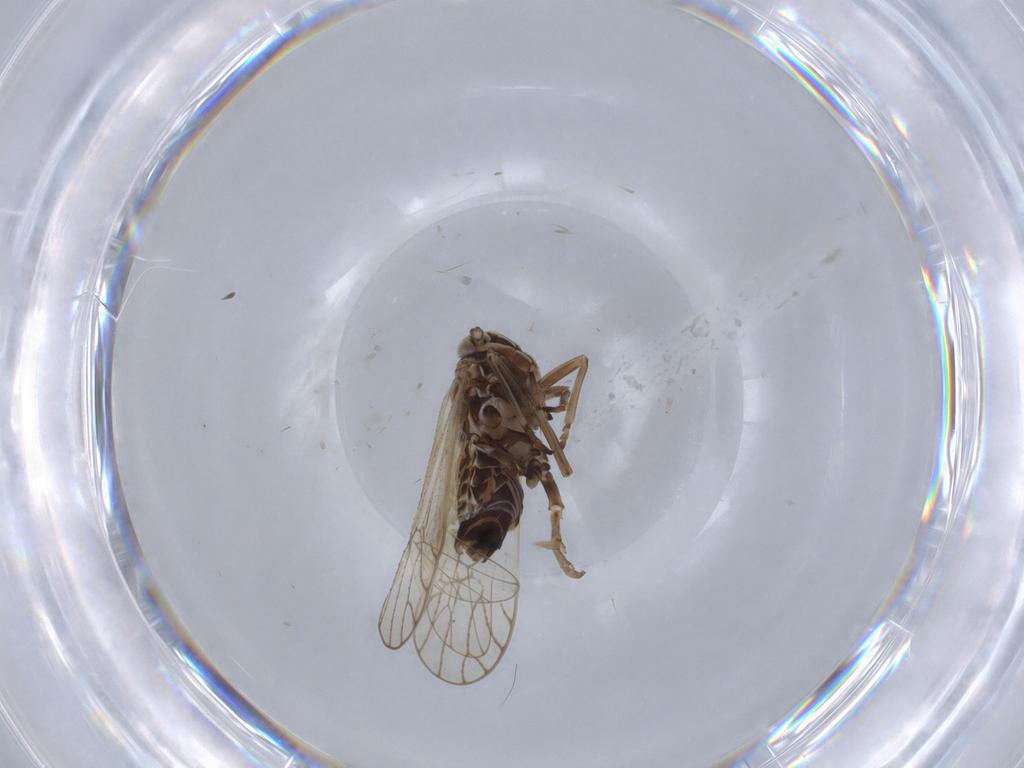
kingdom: Animalia
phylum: Arthropoda
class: Insecta
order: Hemiptera
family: Delphacidae
